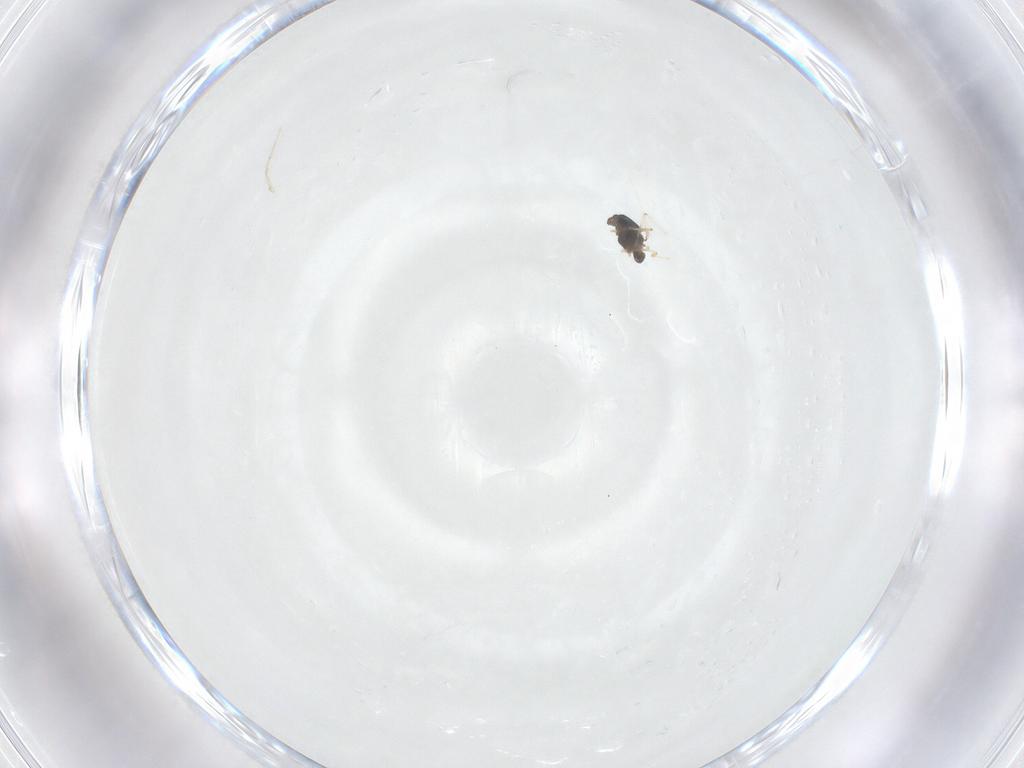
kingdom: Animalia
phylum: Arthropoda
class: Insecta
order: Diptera
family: Chironomidae
